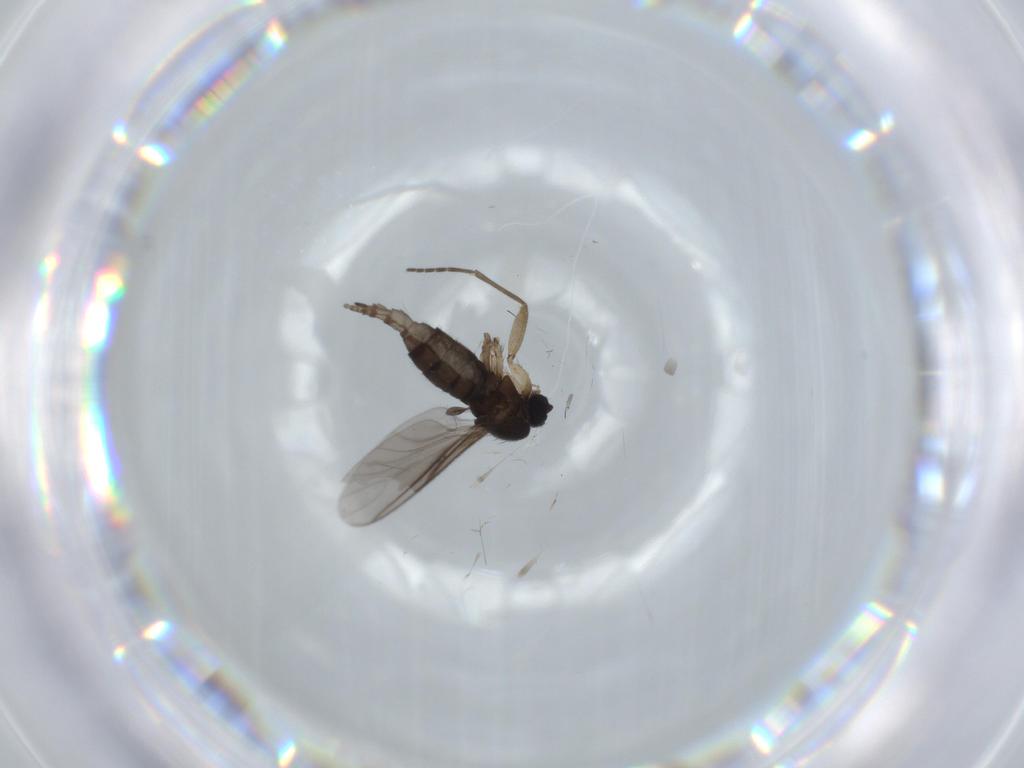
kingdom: Animalia
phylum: Arthropoda
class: Insecta
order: Diptera
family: Sciaridae
